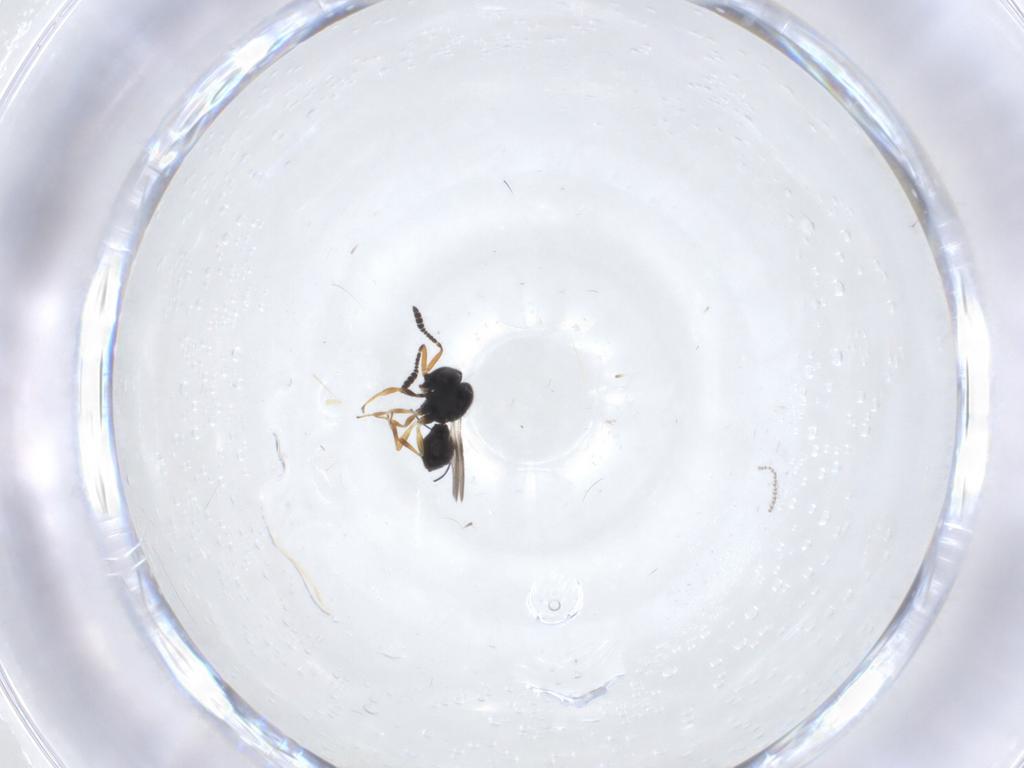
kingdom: Animalia
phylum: Arthropoda
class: Insecta
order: Hymenoptera
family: Scelionidae
